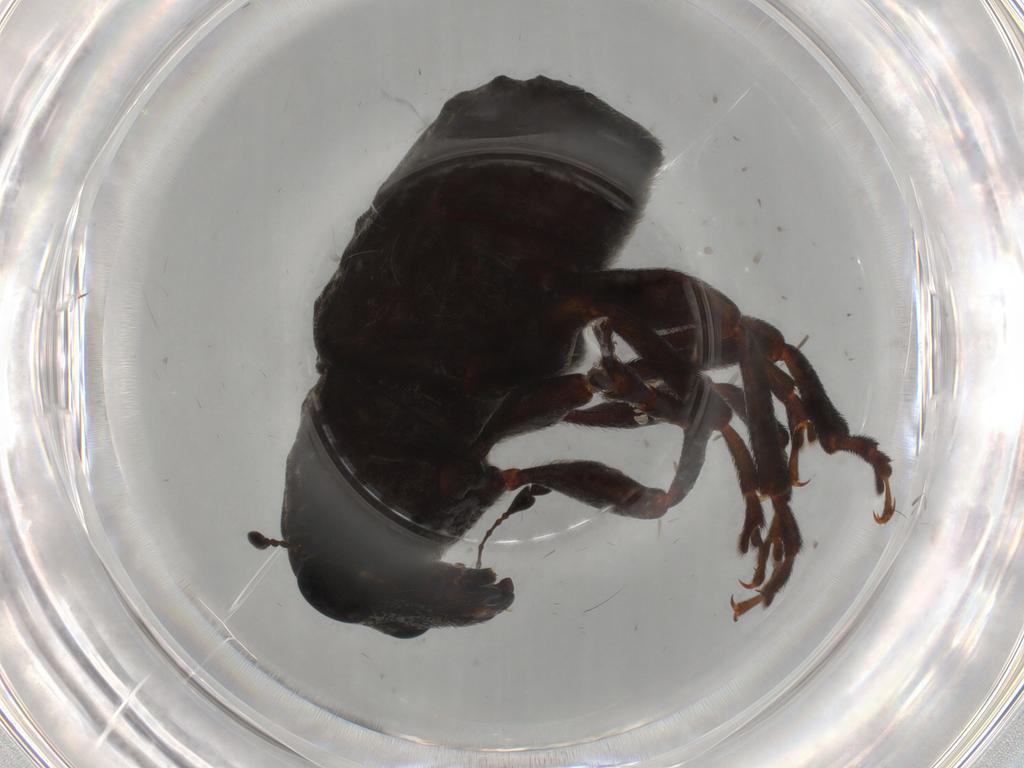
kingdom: Animalia
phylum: Arthropoda
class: Insecta
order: Coleoptera
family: Anthribidae
